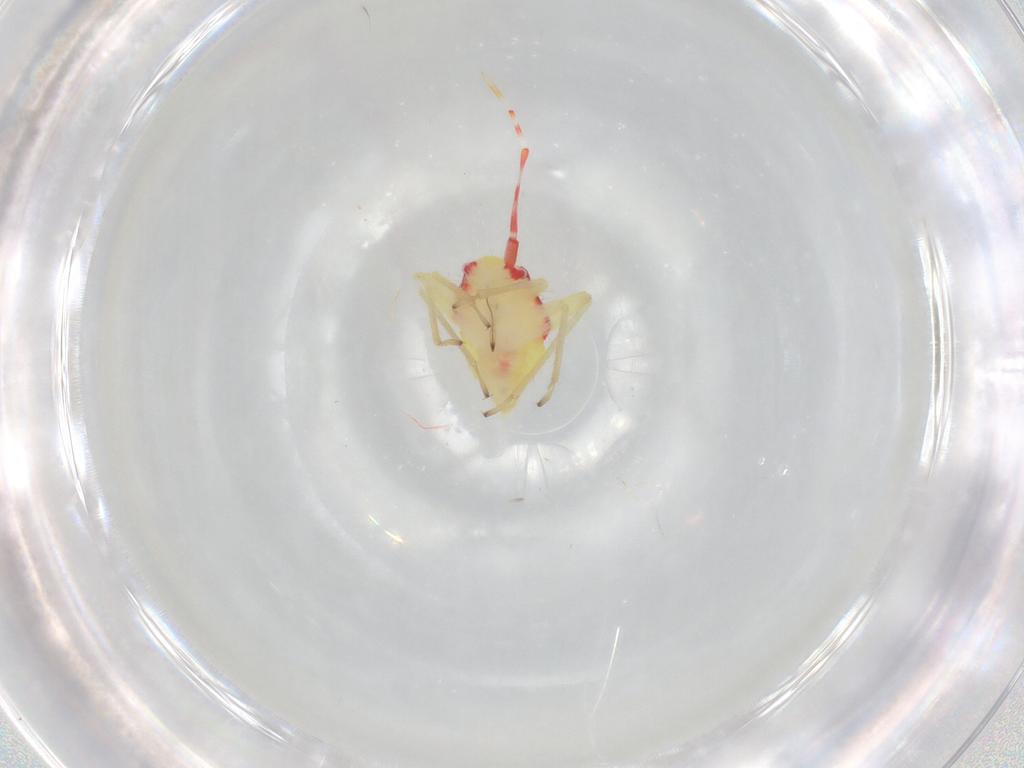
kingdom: Animalia
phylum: Arthropoda
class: Insecta
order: Hemiptera
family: Miridae
